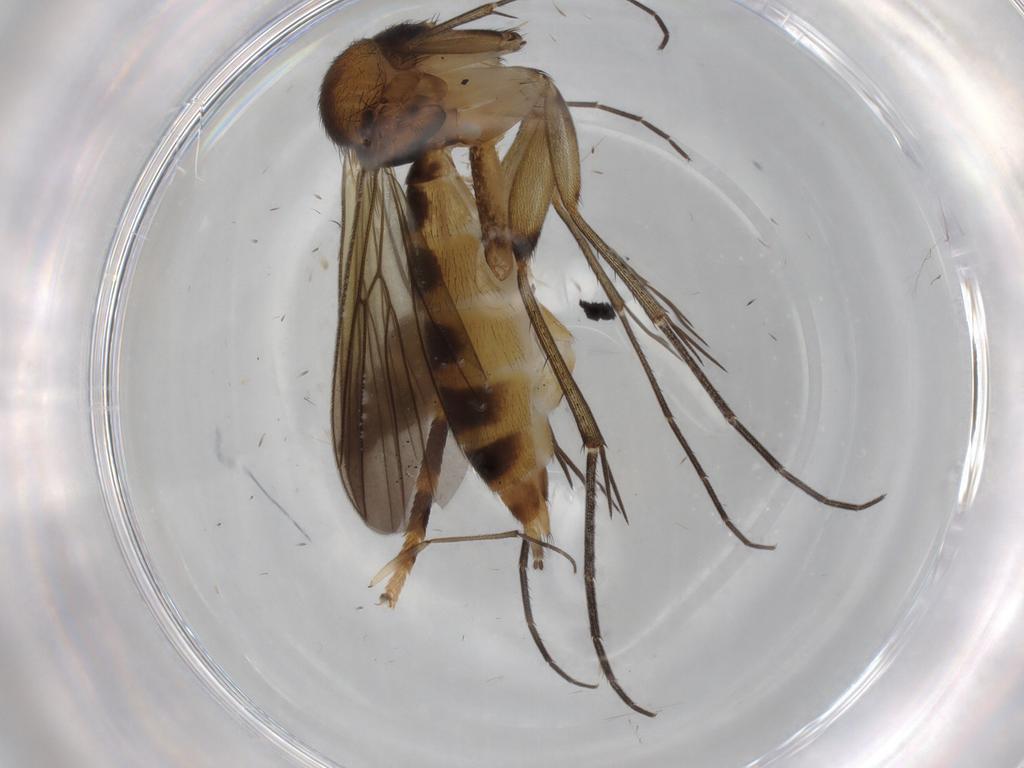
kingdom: Animalia
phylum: Arthropoda
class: Insecta
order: Diptera
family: Sciaridae
